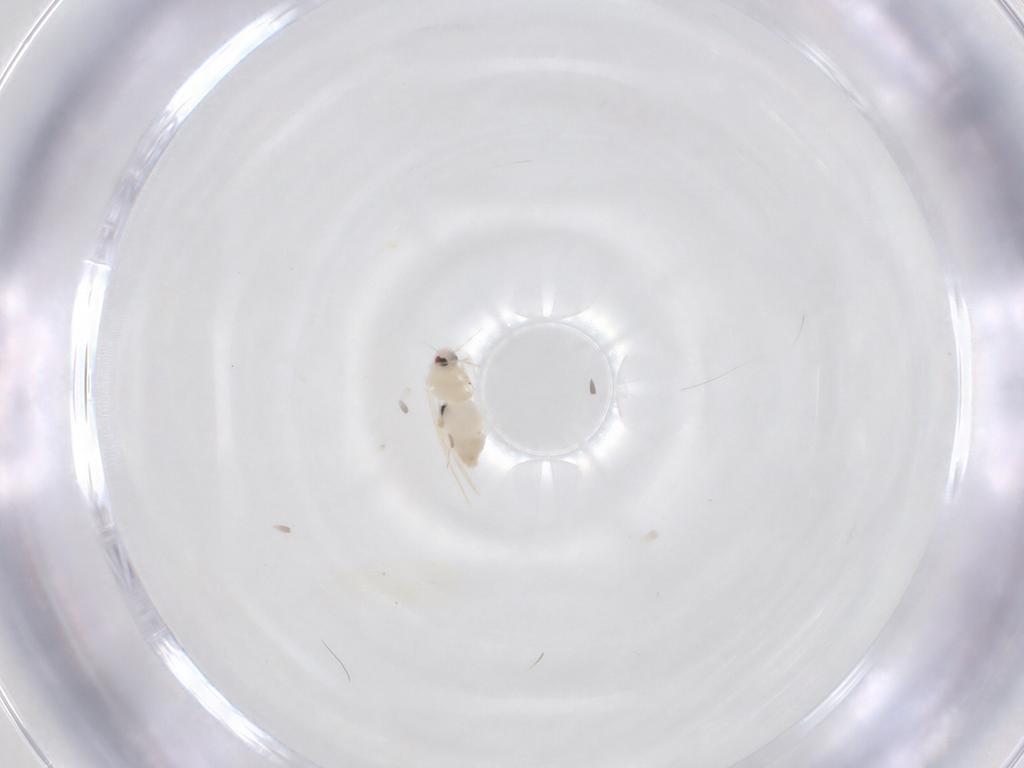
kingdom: Animalia
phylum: Arthropoda
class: Insecta
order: Hemiptera
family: Aleyrodidae
